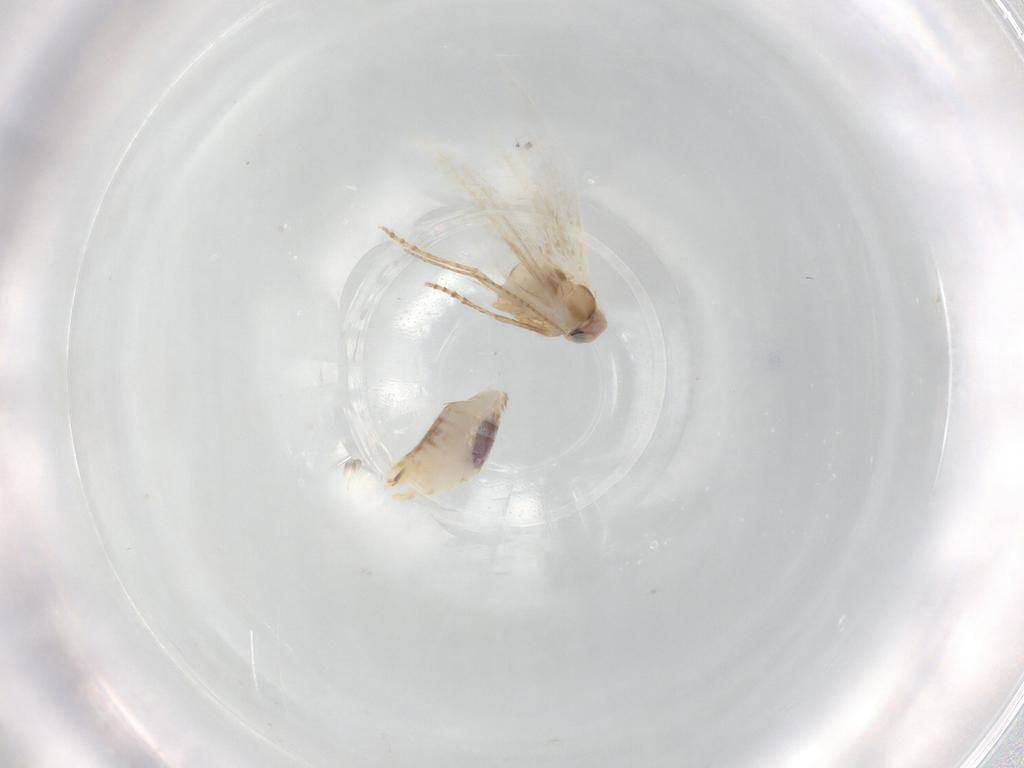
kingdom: Animalia
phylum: Arthropoda
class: Insecta
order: Lepidoptera
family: Bucculatricidae
